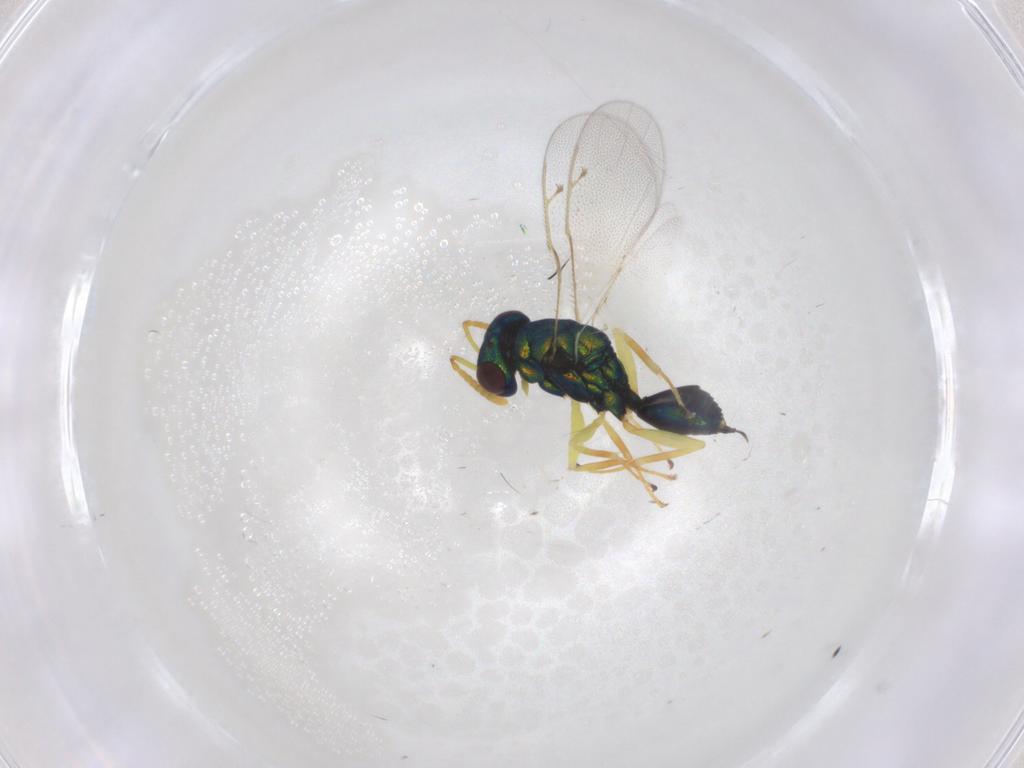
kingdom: Animalia
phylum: Arthropoda
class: Insecta
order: Hymenoptera
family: Pteromalidae
